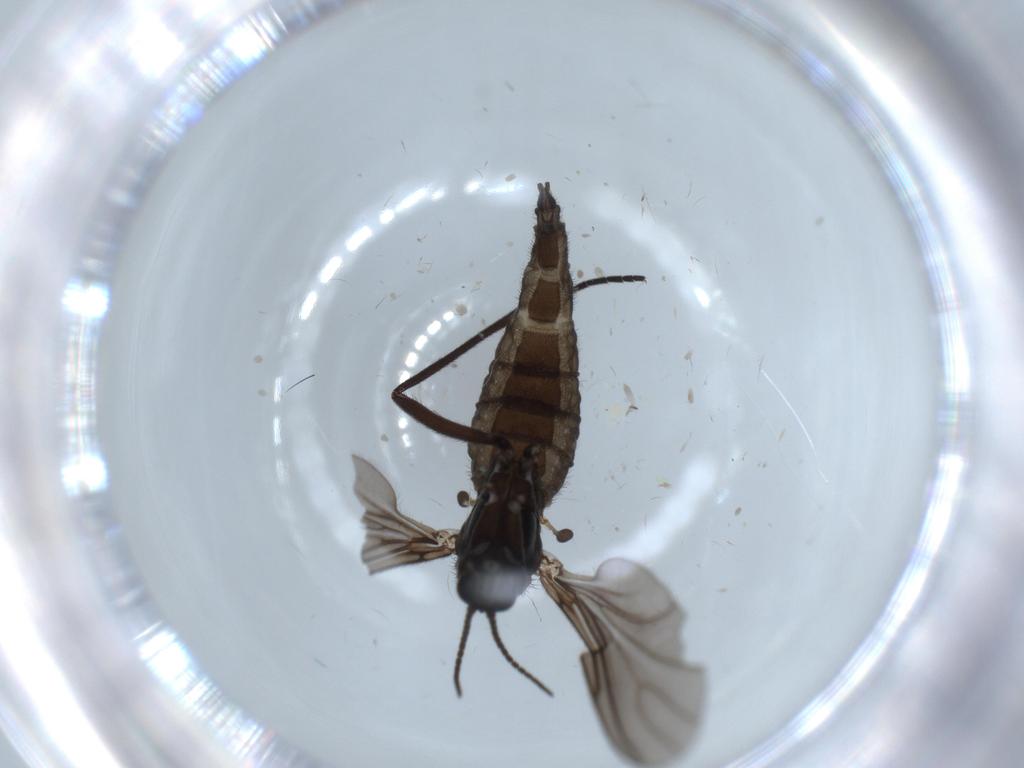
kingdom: Animalia
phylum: Arthropoda
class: Insecta
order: Diptera
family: Sciaridae
